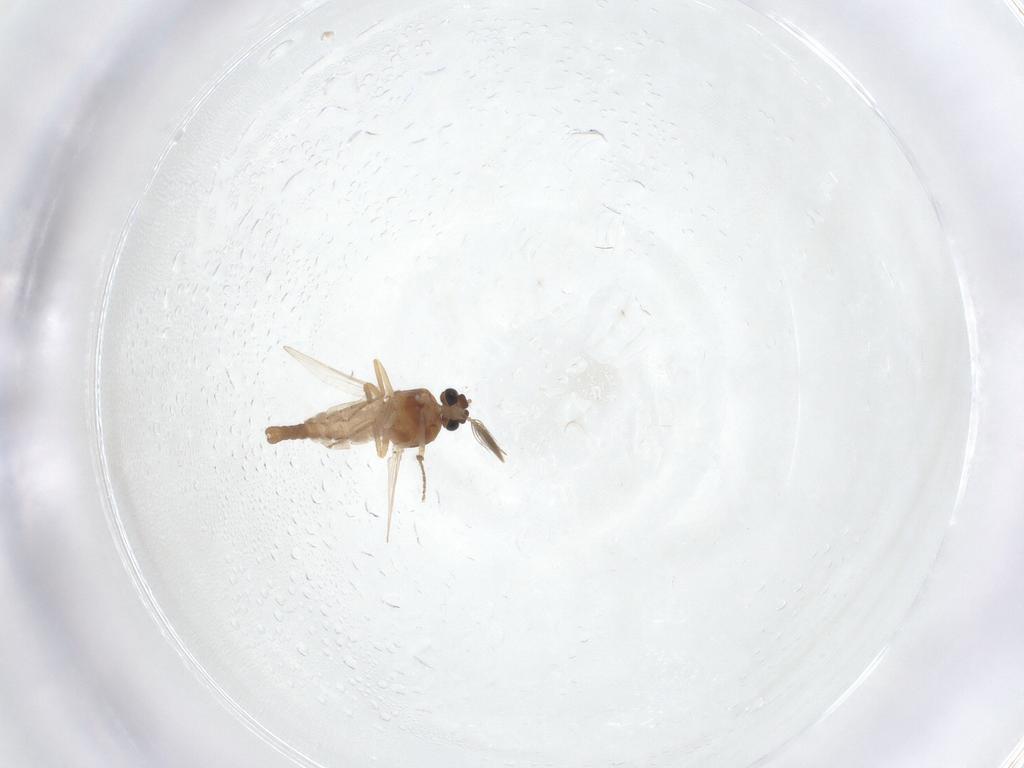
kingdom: Animalia
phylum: Arthropoda
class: Insecta
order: Diptera
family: Ceratopogonidae
